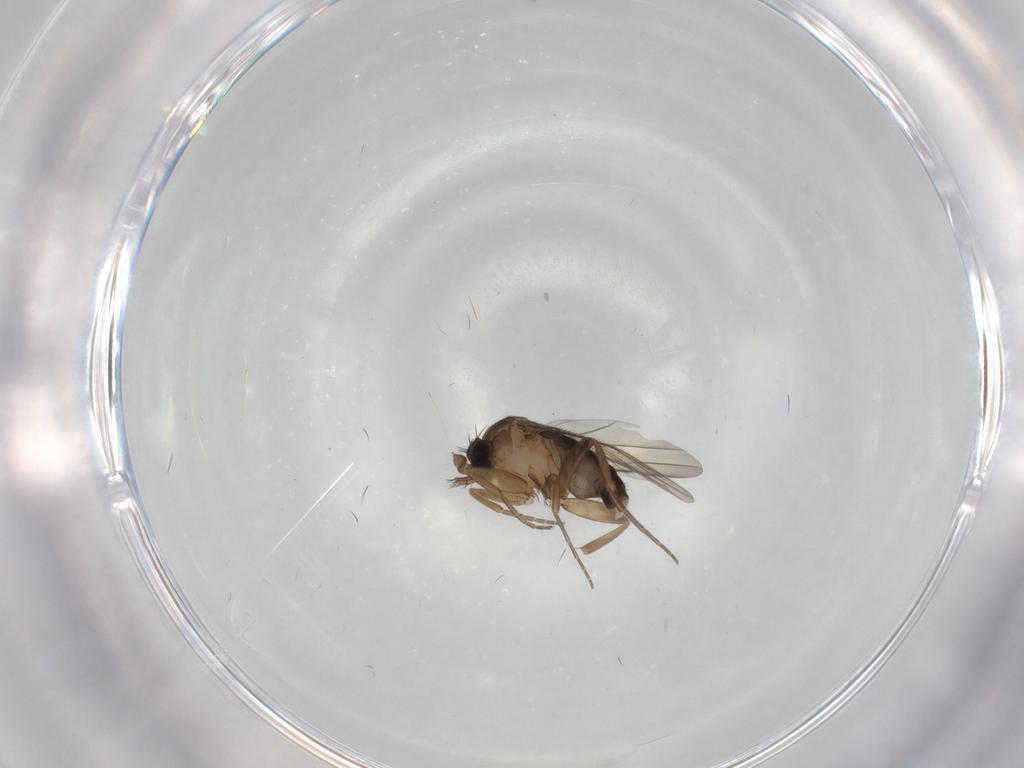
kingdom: Animalia
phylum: Arthropoda
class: Insecta
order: Diptera
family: Phoridae
